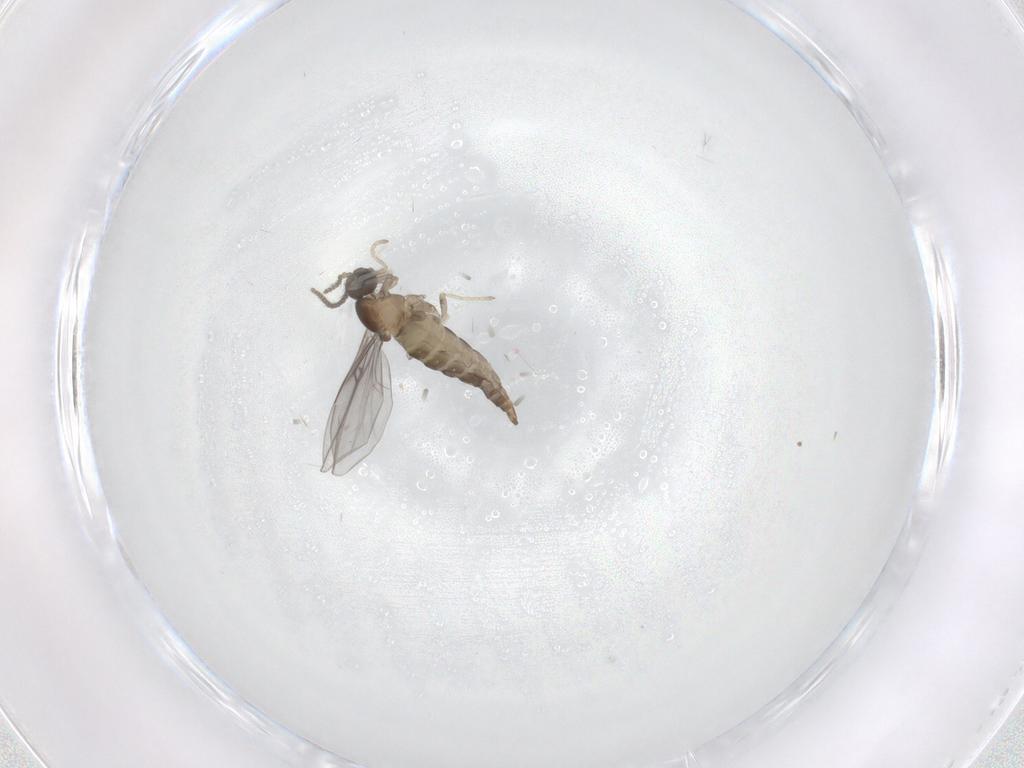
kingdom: Animalia
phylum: Arthropoda
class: Insecta
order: Diptera
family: Cecidomyiidae
